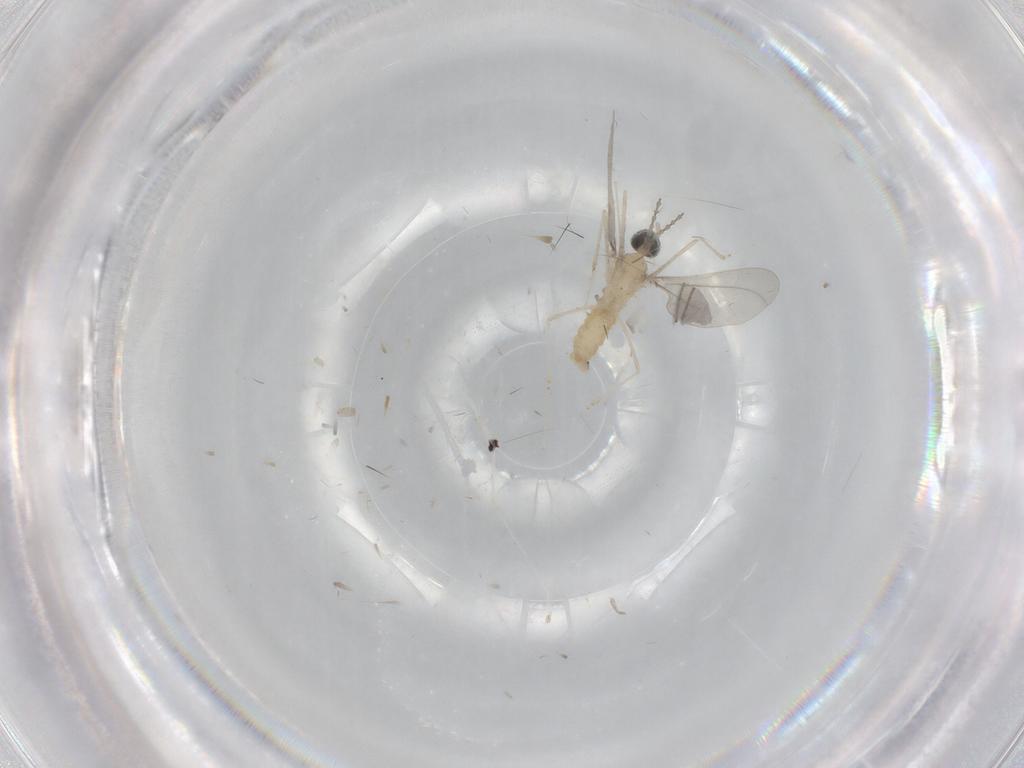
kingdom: Animalia
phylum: Arthropoda
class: Insecta
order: Diptera
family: Cecidomyiidae
